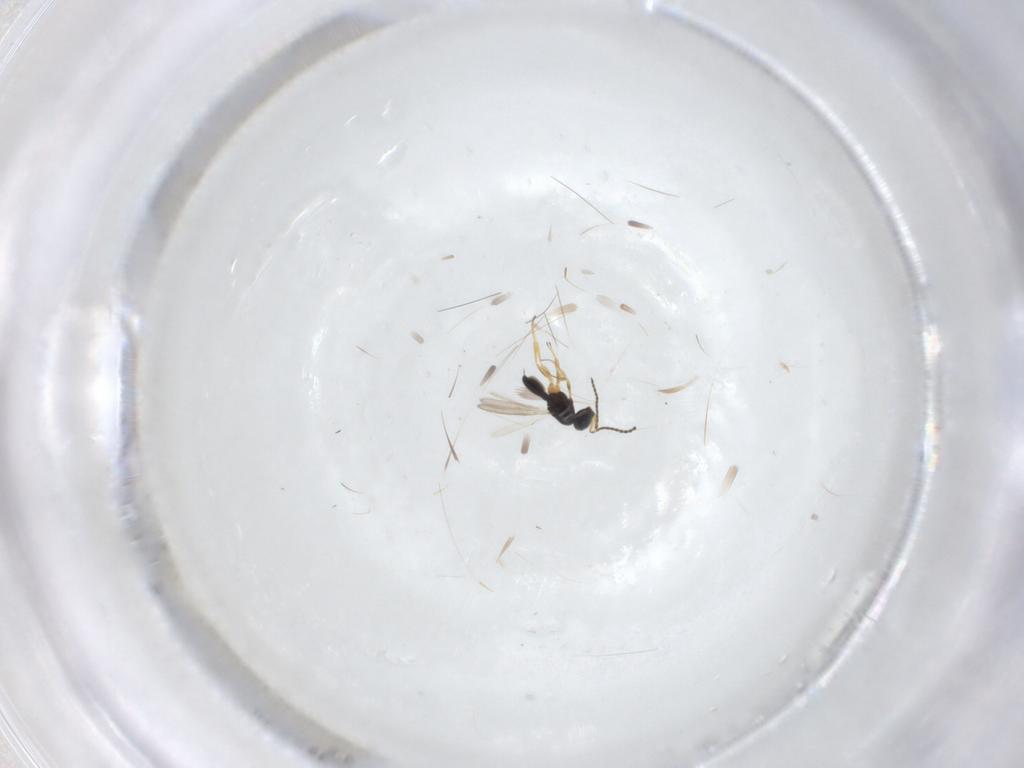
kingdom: Animalia
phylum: Arthropoda
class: Insecta
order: Hymenoptera
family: Scelionidae
